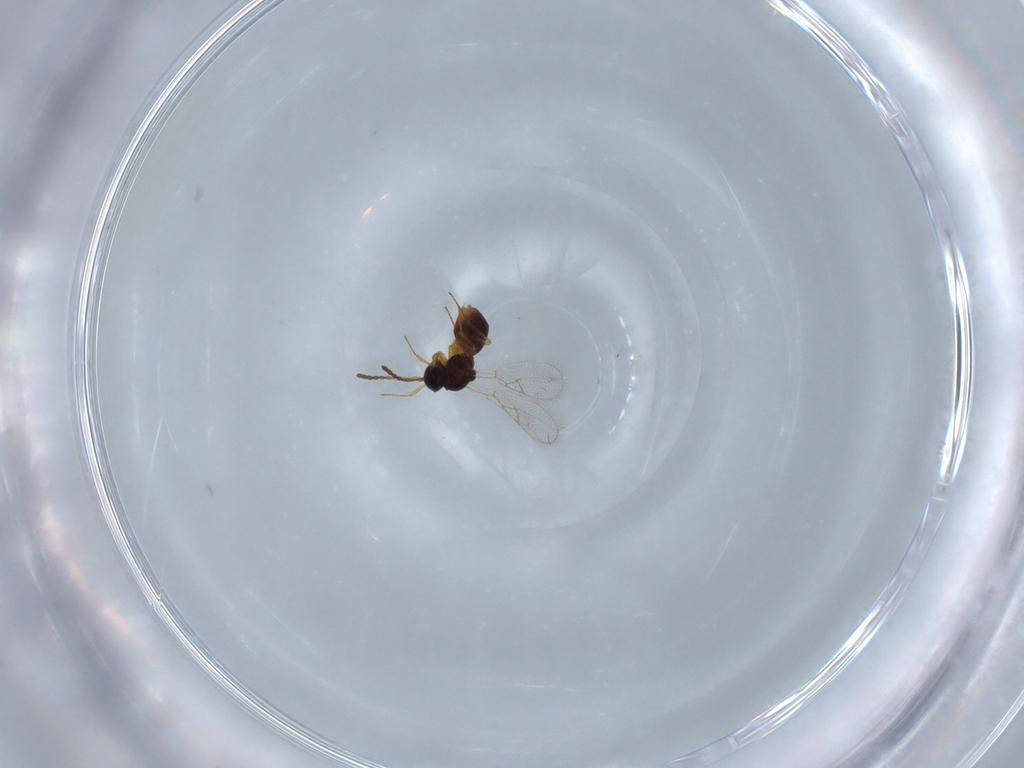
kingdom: Animalia
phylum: Arthropoda
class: Insecta
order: Hymenoptera
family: Figitidae
